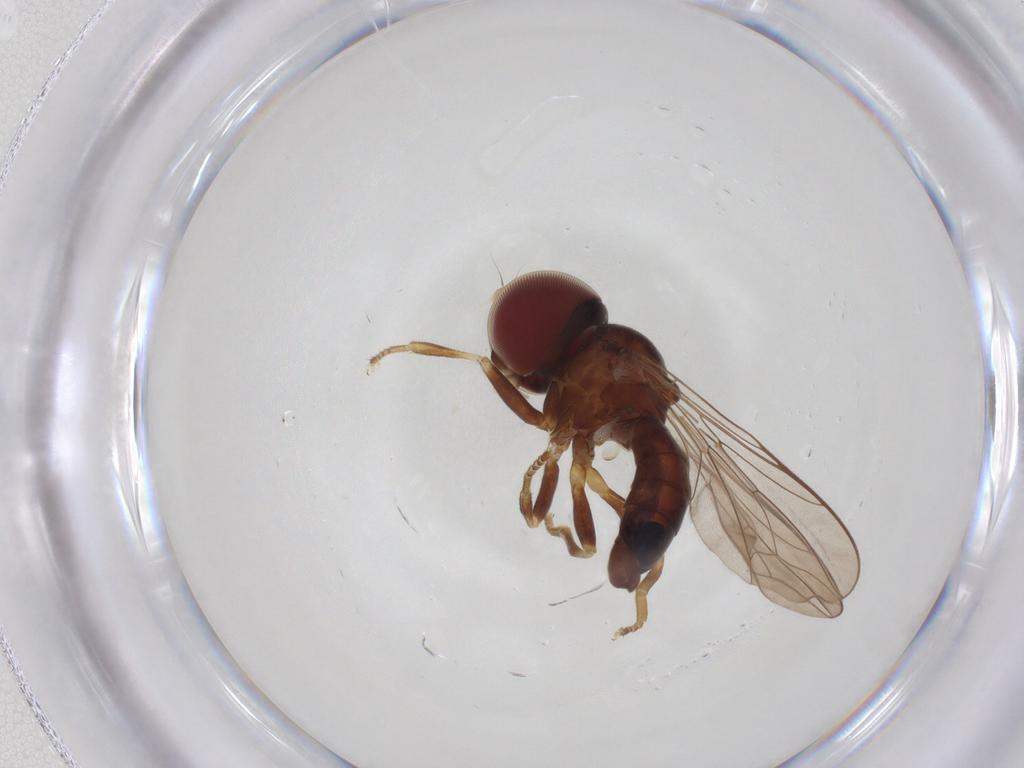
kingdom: Animalia
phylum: Arthropoda
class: Insecta
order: Diptera
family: Pipunculidae
